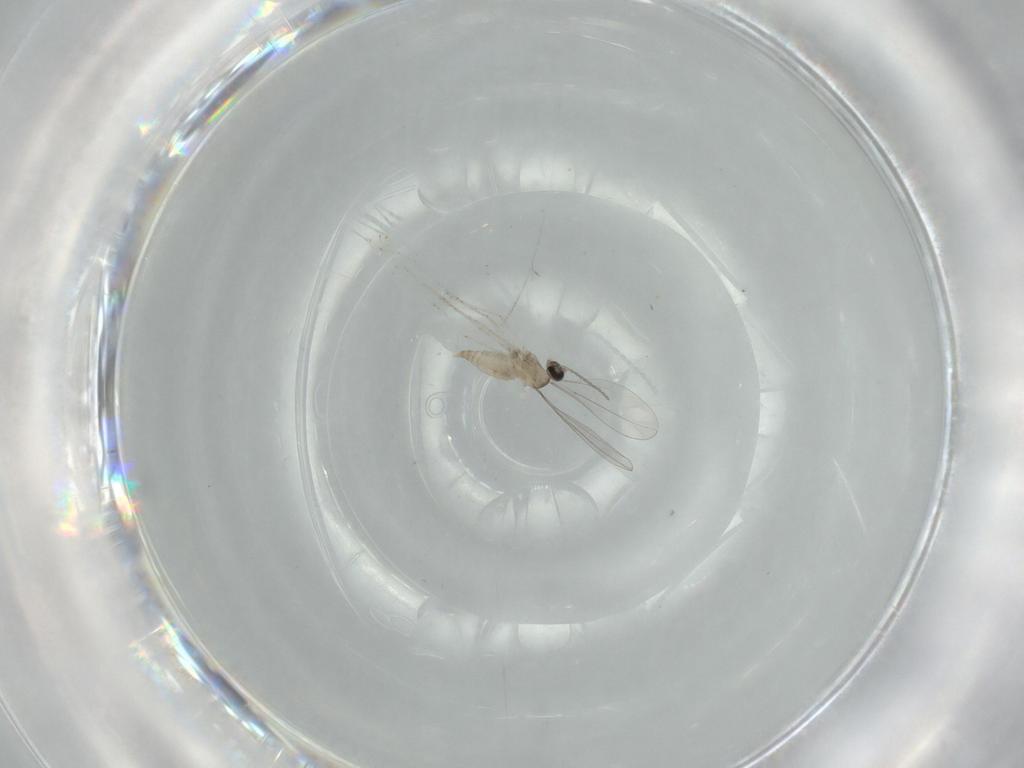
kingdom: Animalia
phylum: Arthropoda
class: Insecta
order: Diptera
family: Cecidomyiidae
